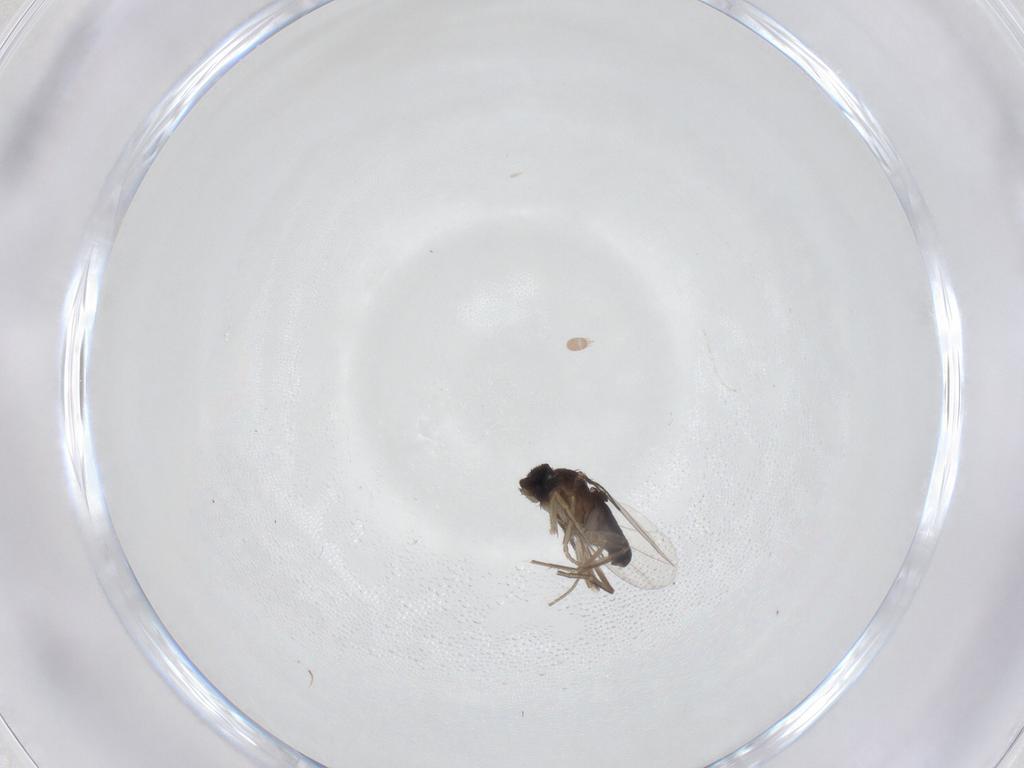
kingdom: Animalia
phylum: Arthropoda
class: Insecta
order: Diptera
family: Phoridae
